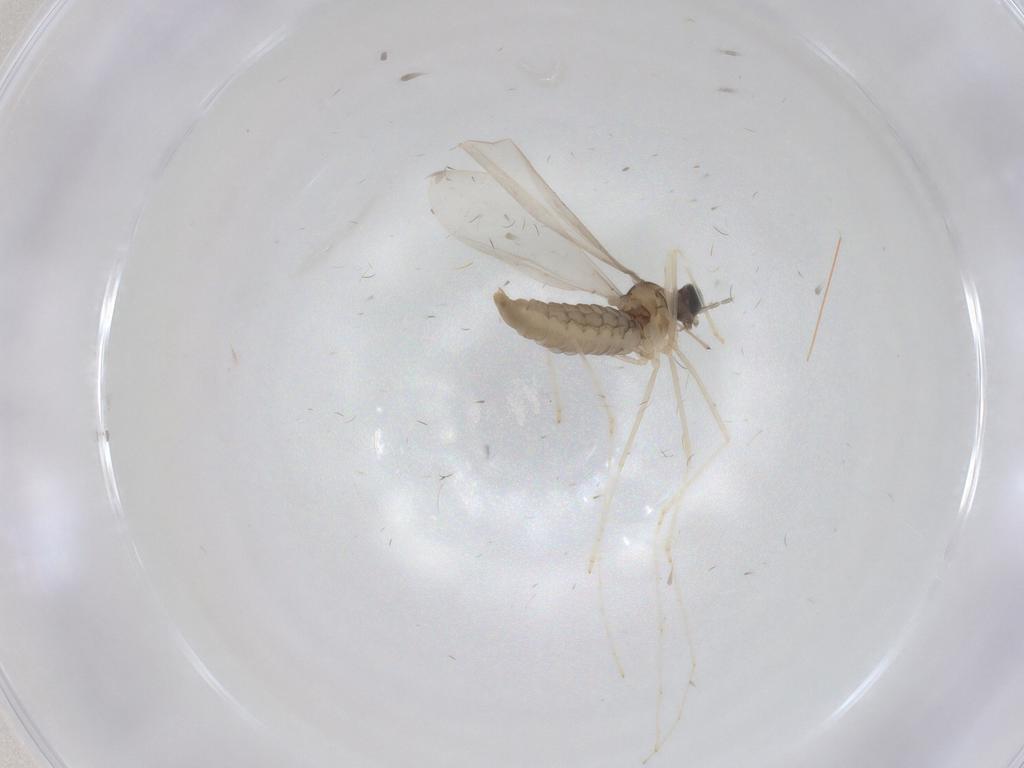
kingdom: Animalia
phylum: Arthropoda
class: Insecta
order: Diptera
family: Cecidomyiidae
